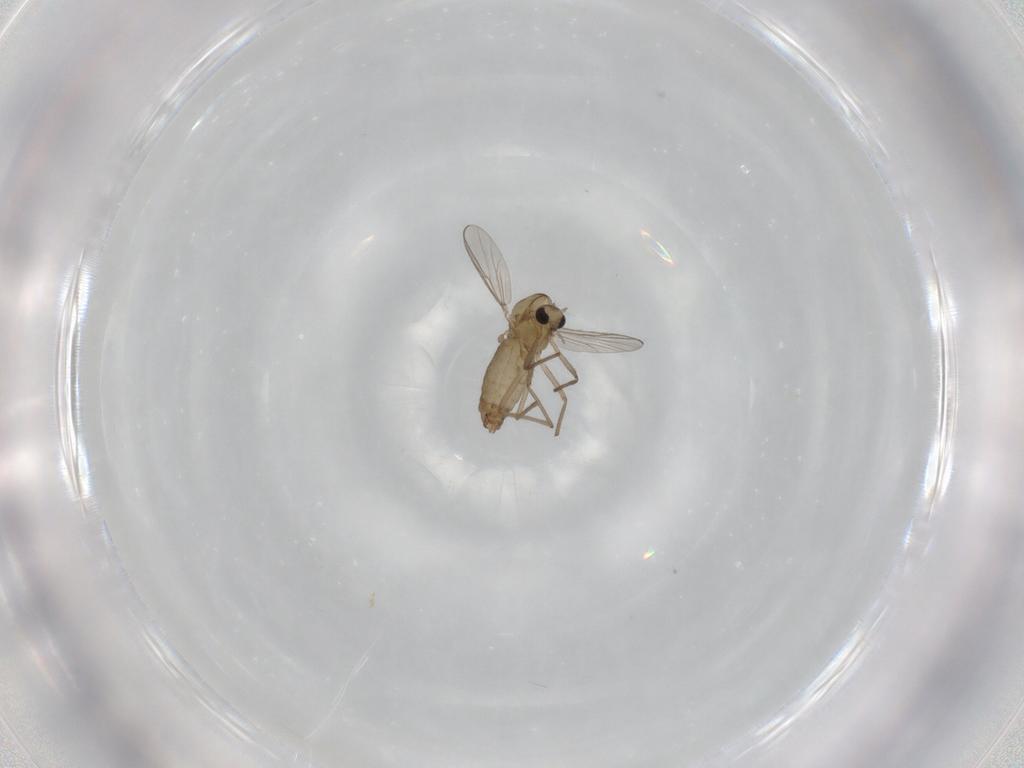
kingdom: Animalia
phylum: Arthropoda
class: Insecta
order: Diptera
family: Chironomidae
